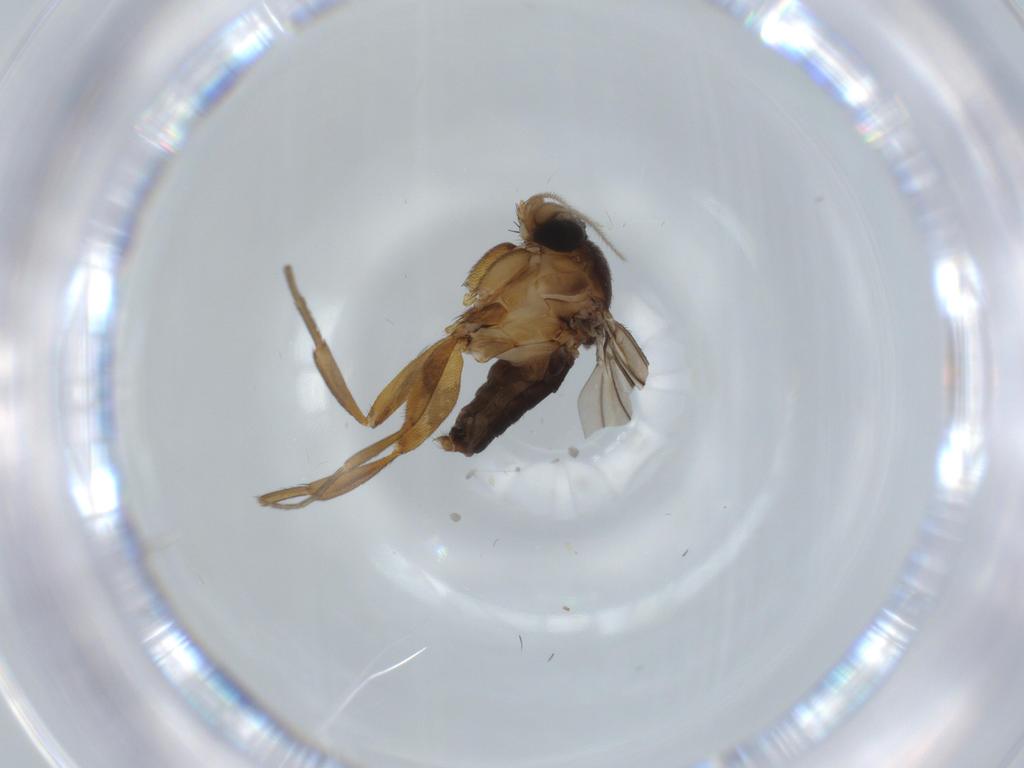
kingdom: Animalia
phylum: Arthropoda
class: Insecta
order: Diptera
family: Phoridae
